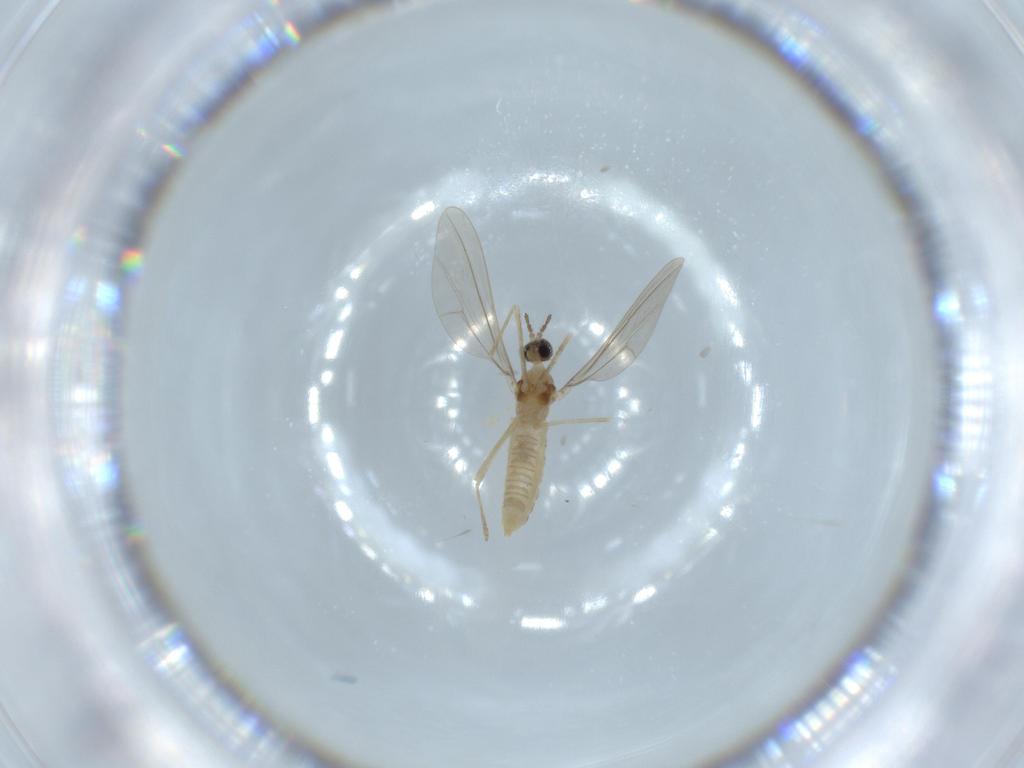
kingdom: Animalia
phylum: Arthropoda
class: Insecta
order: Diptera
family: Cecidomyiidae
